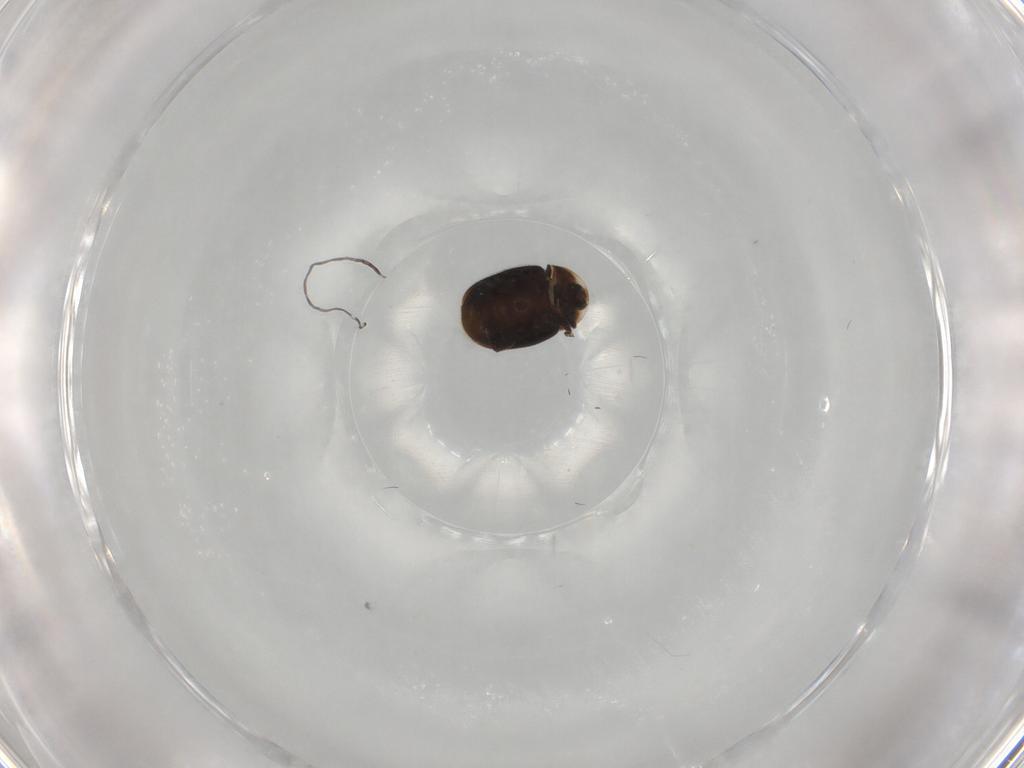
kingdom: Animalia
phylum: Arthropoda
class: Insecta
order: Coleoptera
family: Corylophidae
